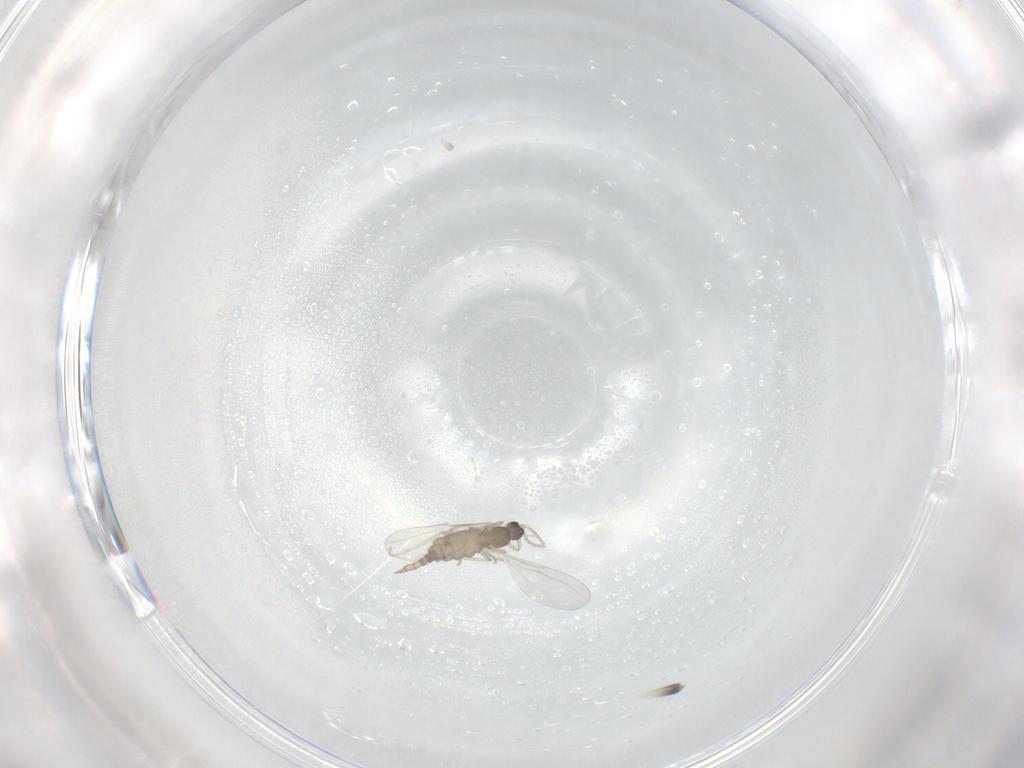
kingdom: Animalia
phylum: Arthropoda
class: Insecta
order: Diptera
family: Cecidomyiidae
